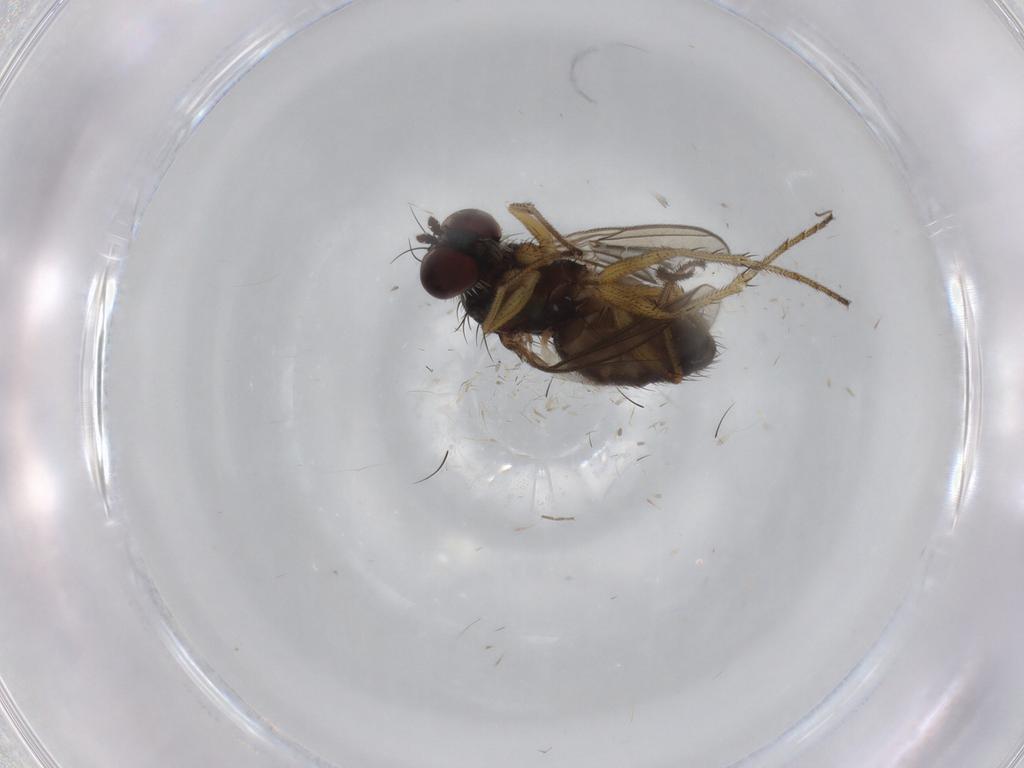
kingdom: Animalia
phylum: Arthropoda
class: Insecta
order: Diptera
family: Dolichopodidae
